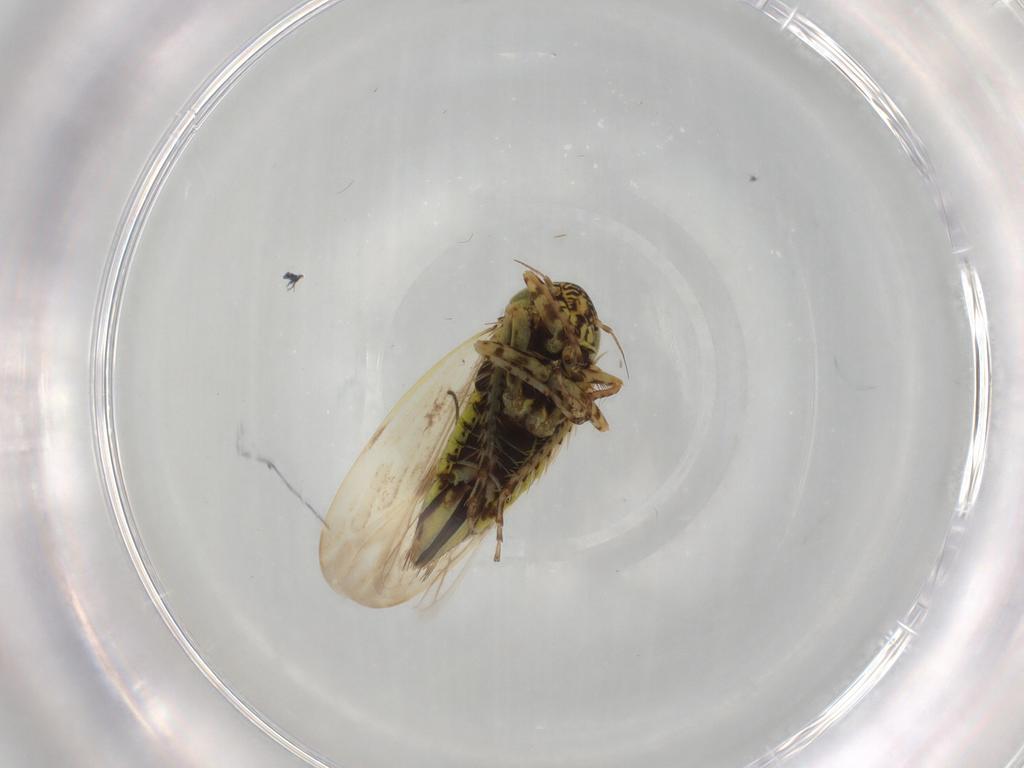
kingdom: Animalia
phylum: Arthropoda
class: Insecta
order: Hemiptera
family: Cicadellidae
